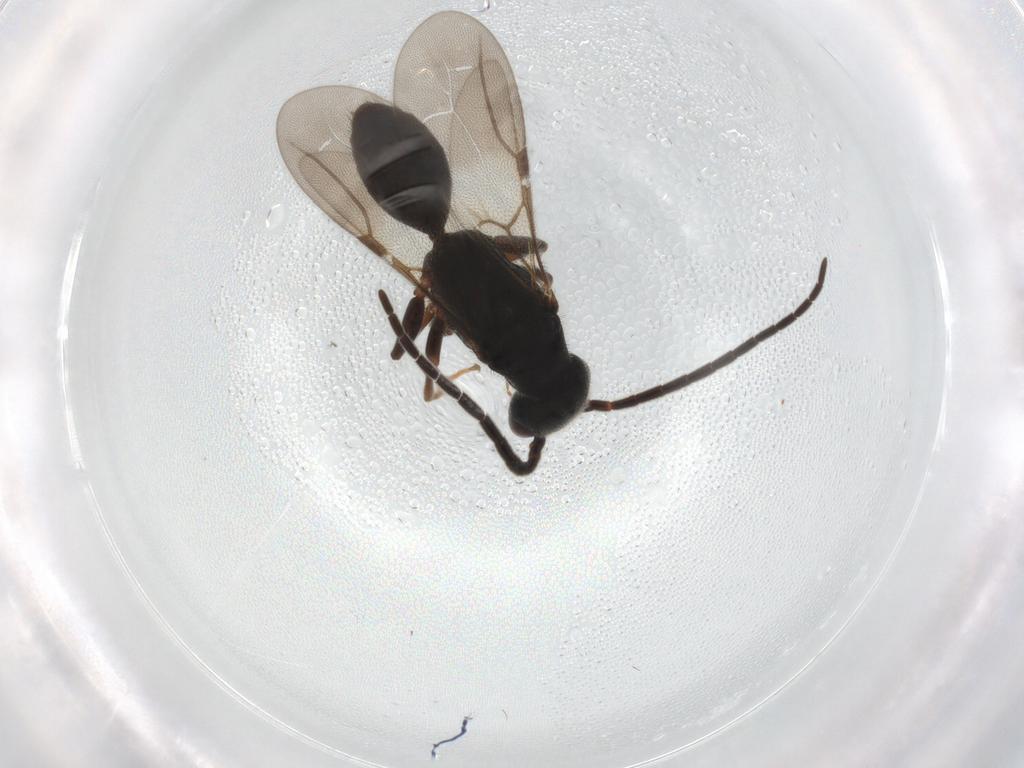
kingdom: Animalia
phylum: Arthropoda
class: Insecta
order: Hymenoptera
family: Bethylidae
